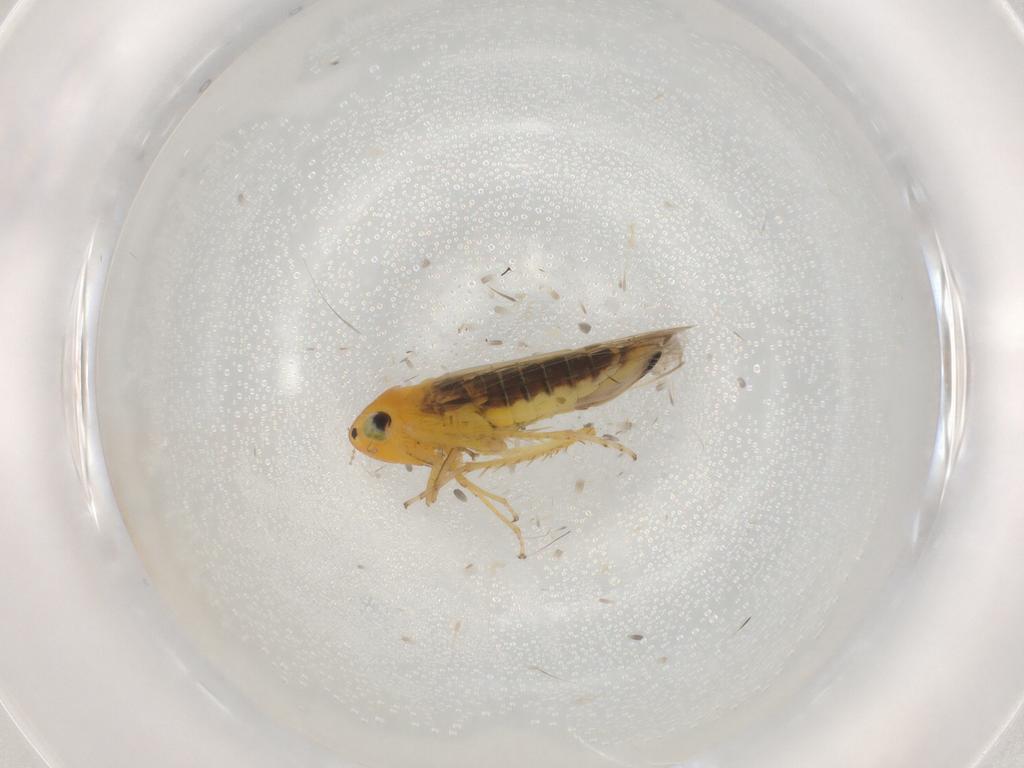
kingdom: Animalia
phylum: Arthropoda
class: Insecta
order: Hemiptera
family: Cicadellidae
